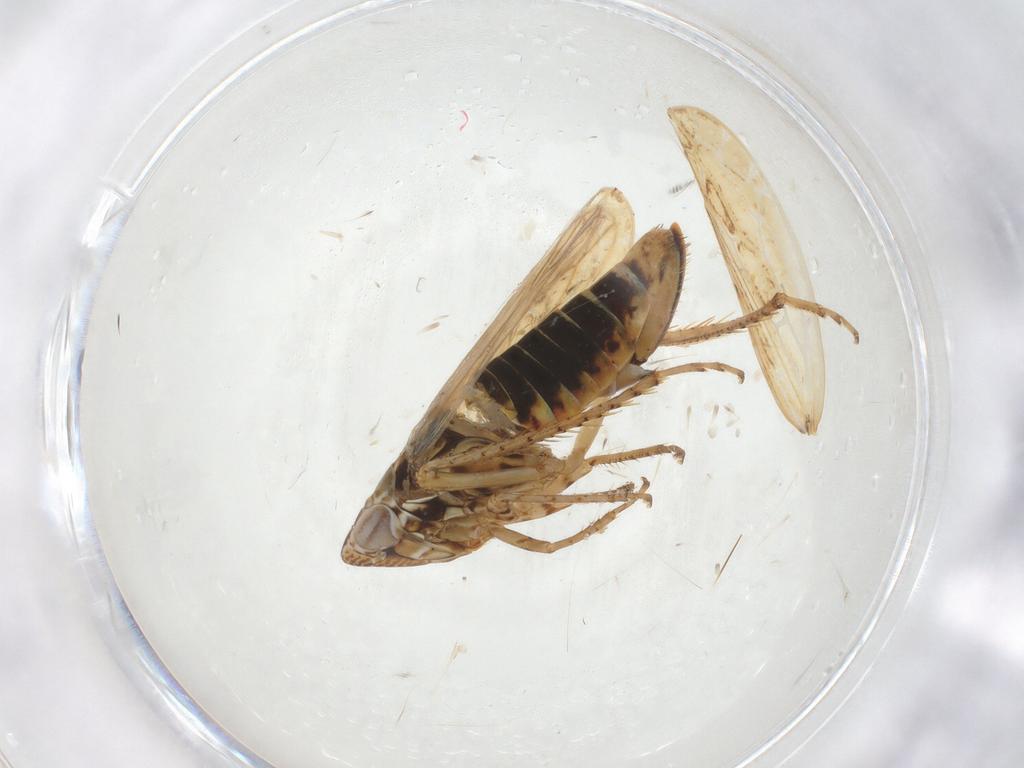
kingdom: Animalia
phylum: Arthropoda
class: Insecta
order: Hemiptera
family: Cicadellidae
